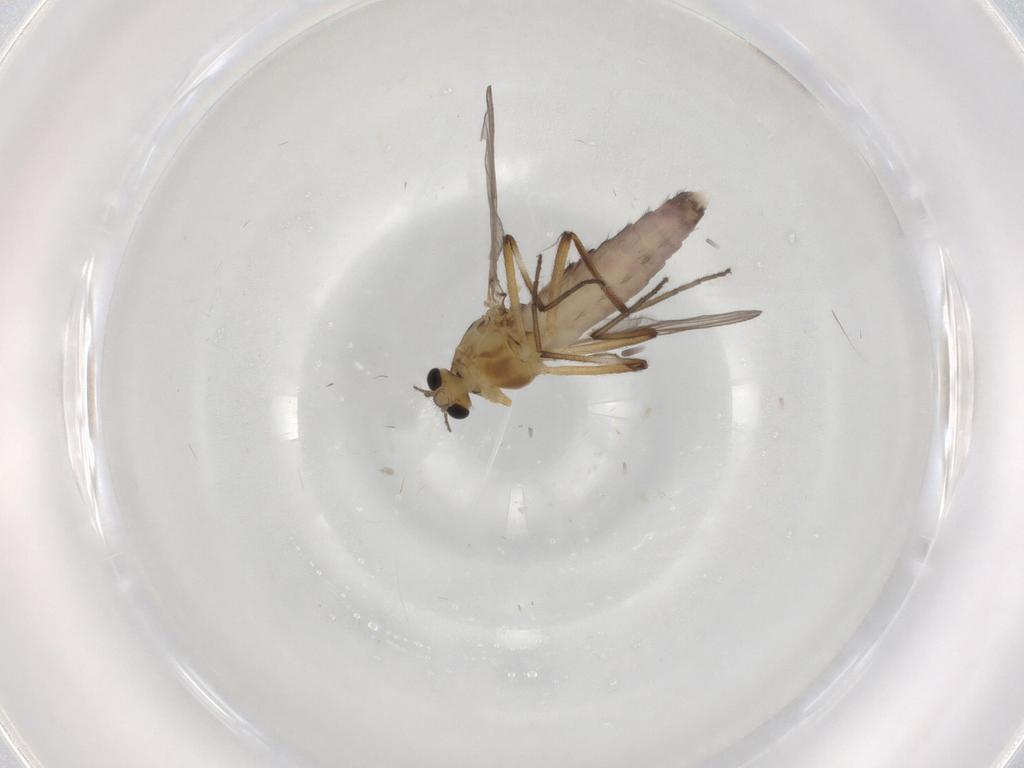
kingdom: Animalia
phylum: Arthropoda
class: Insecta
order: Diptera
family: Chironomidae
